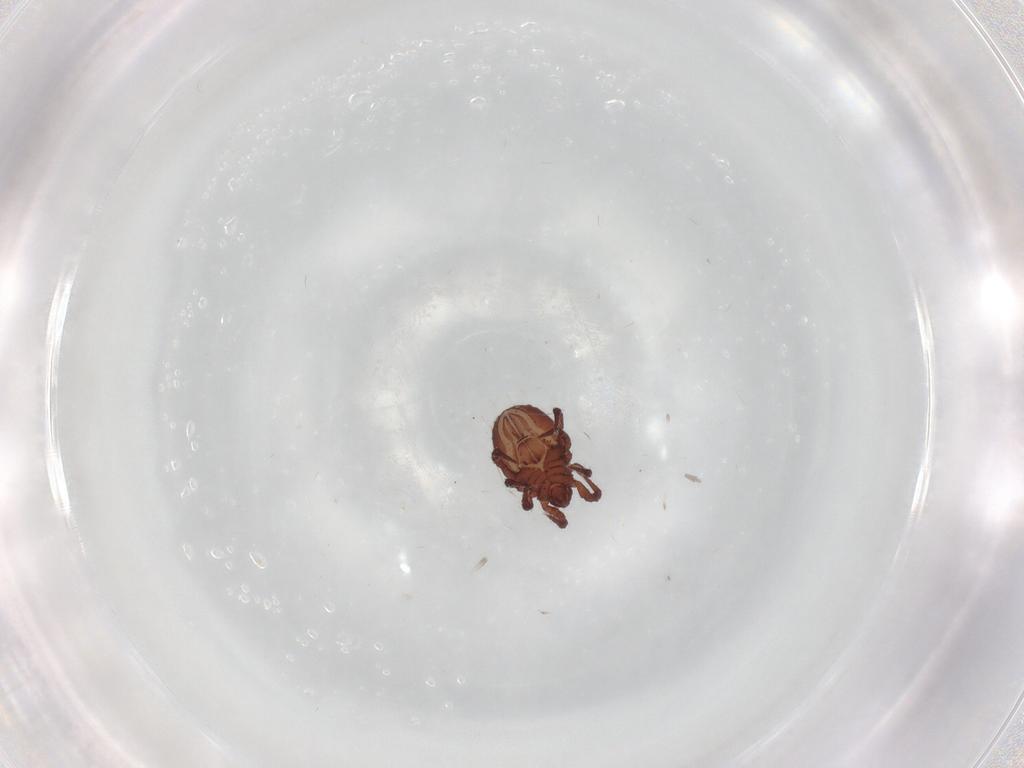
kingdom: Animalia
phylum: Arthropoda
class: Arachnida
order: Sarcoptiformes
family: Nothridae
